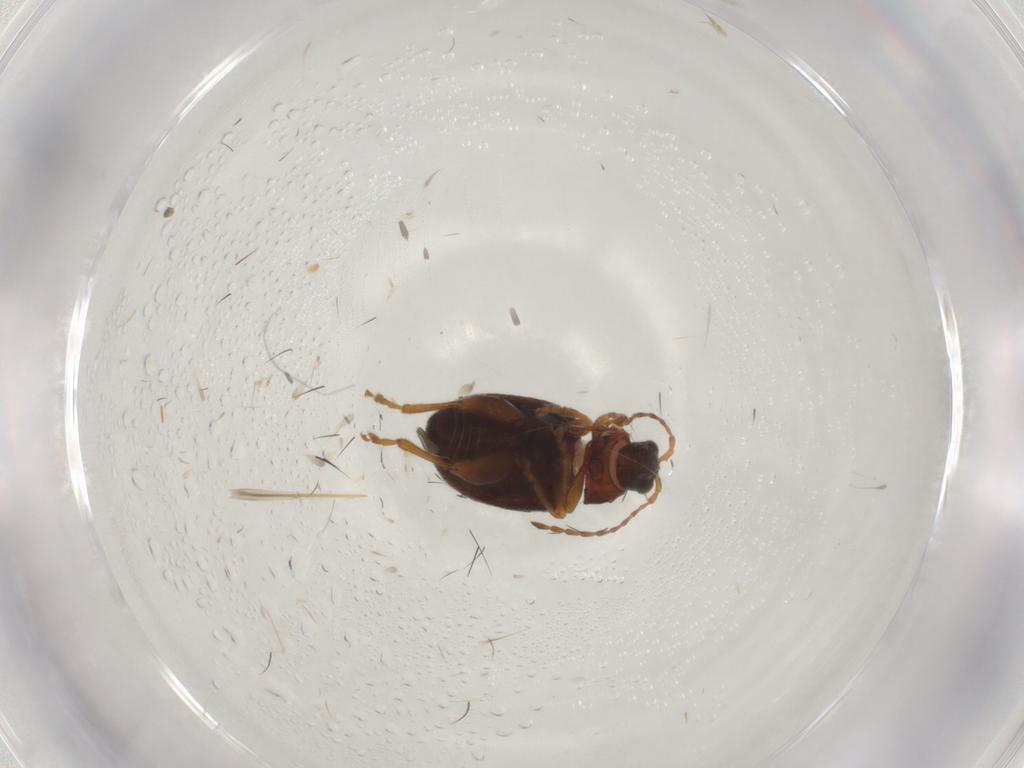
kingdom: Animalia
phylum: Arthropoda
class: Insecta
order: Coleoptera
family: Chrysomelidae
